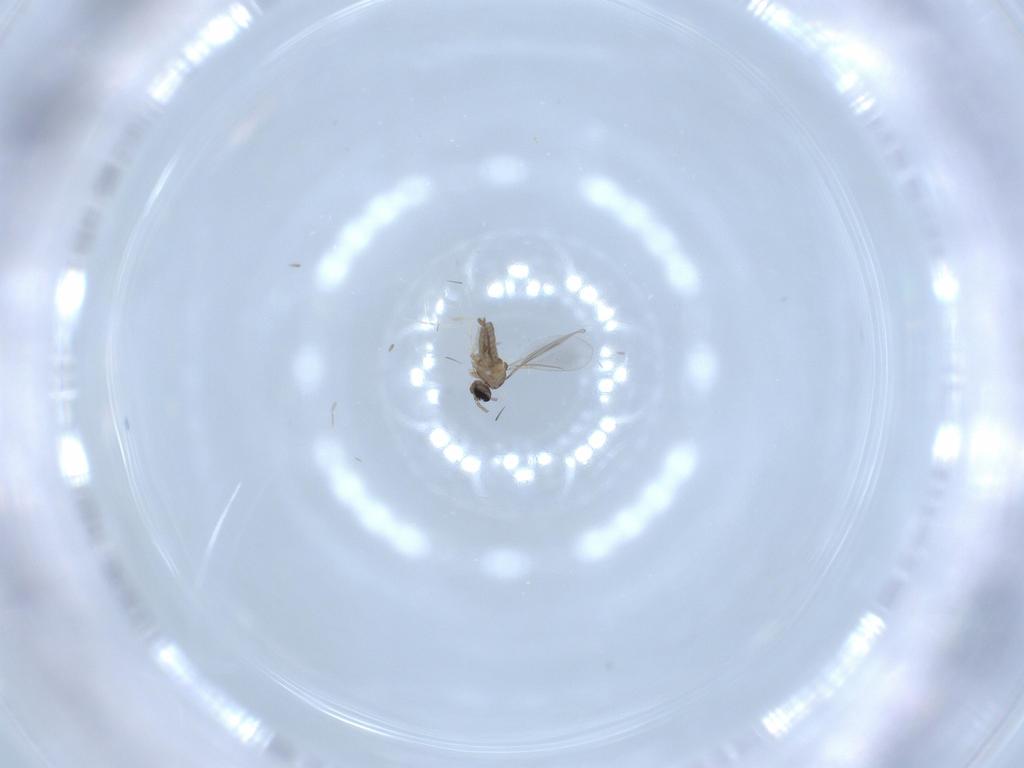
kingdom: Animalia
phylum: Arthropoda
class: Insecta
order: Diptera
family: Cecidomyiidae
